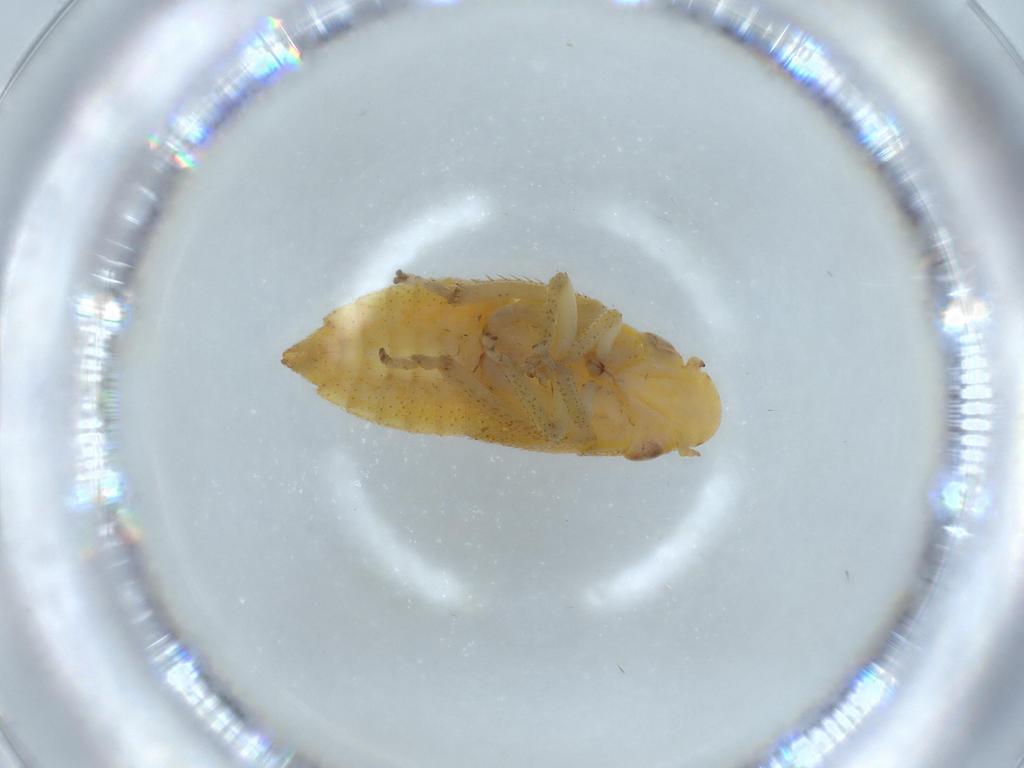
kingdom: Animalia
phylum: Arthropoda
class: Insecta
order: Hemiptera
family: Cicadellidae
